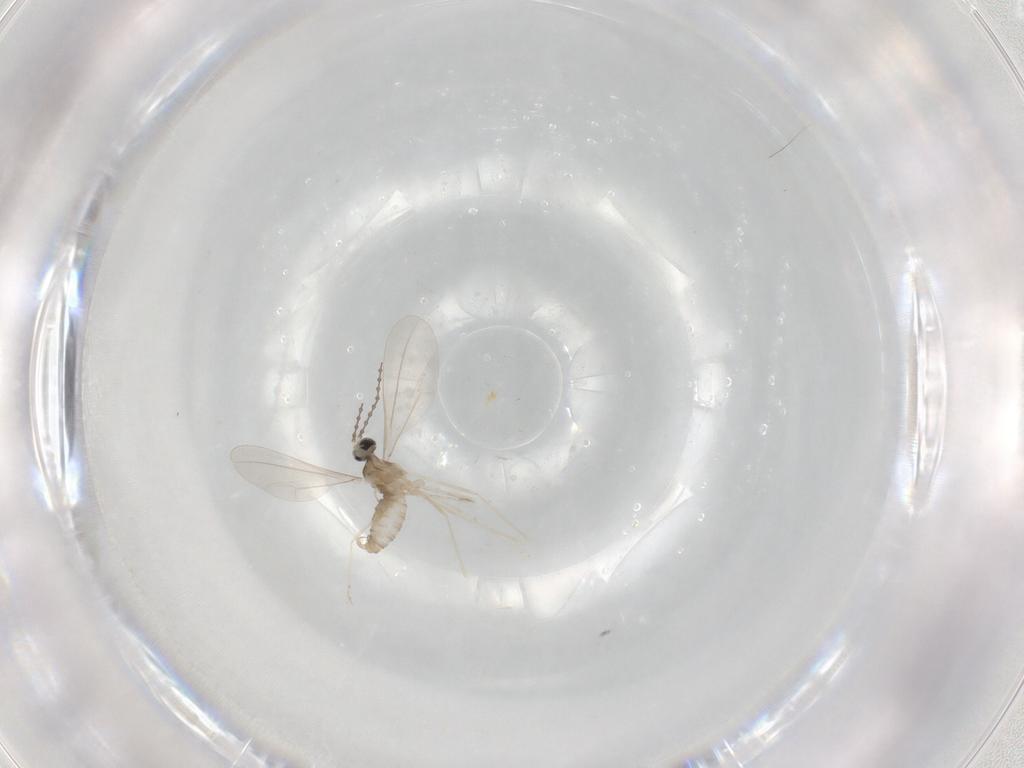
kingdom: Animalia
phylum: Arthropoda
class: Insecta
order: Diptera
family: Cecidomyiidae
